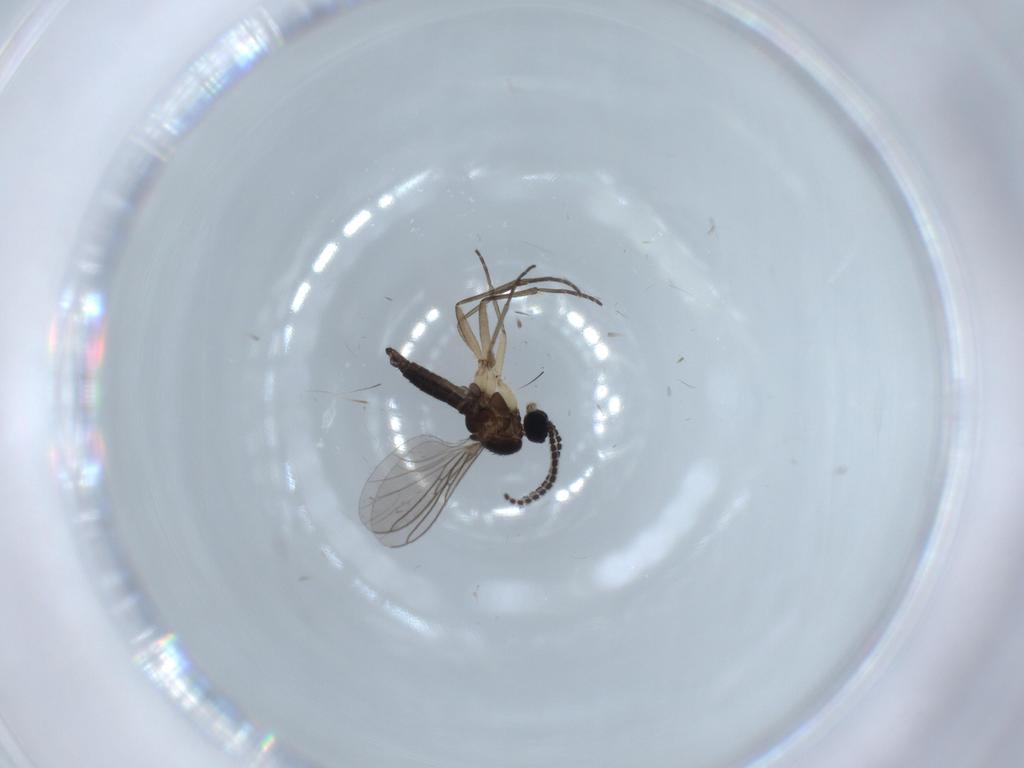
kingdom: Animalia
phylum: Arthropoda
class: Insecta
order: Diptera
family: Sciaridae
